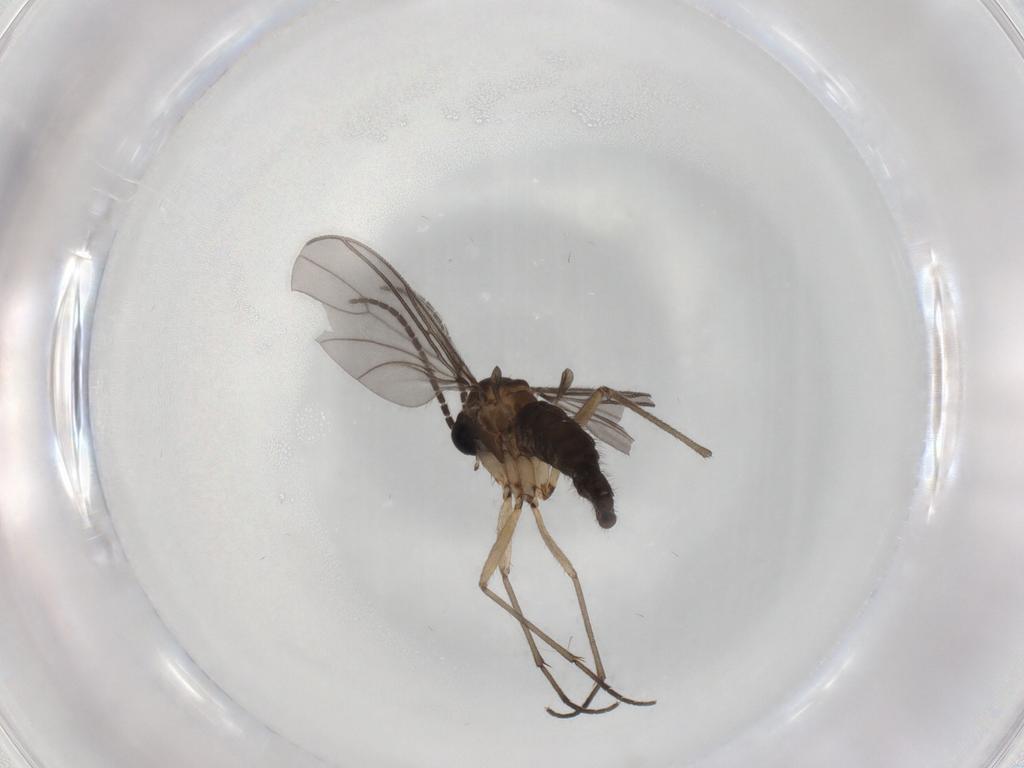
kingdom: Animalia
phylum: Arthropoda
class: Insecta
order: Diptera
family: Sciaridae
